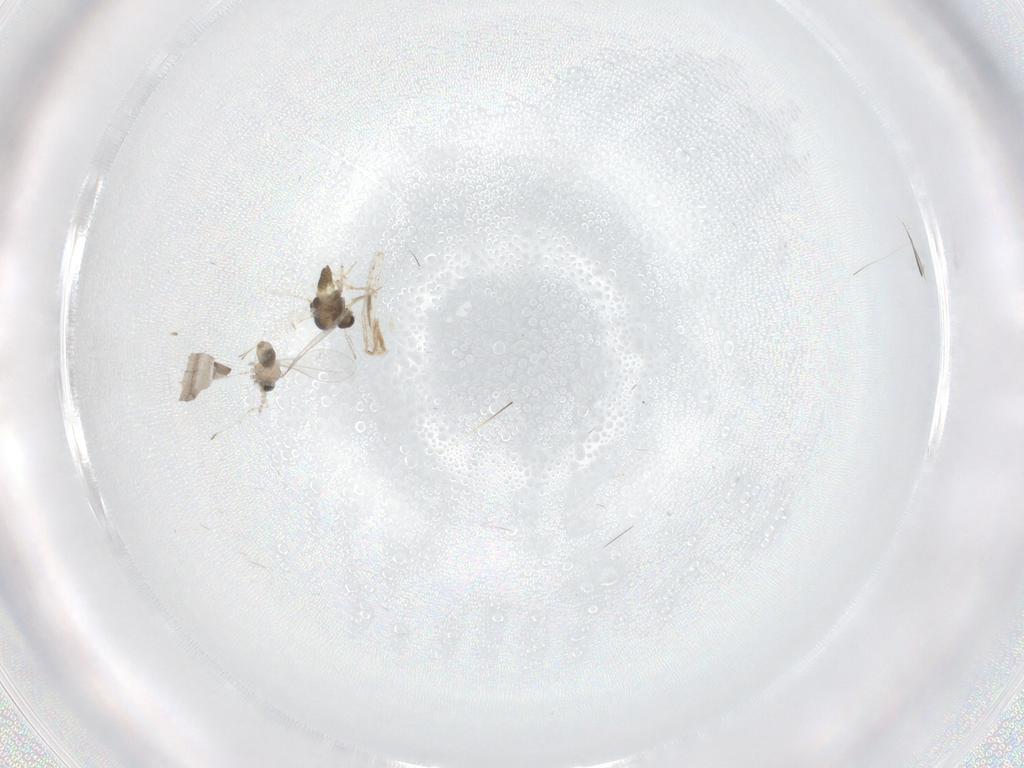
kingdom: Animalia
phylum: Arthropoda
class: Insecta
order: Diptera
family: Chironomidae
